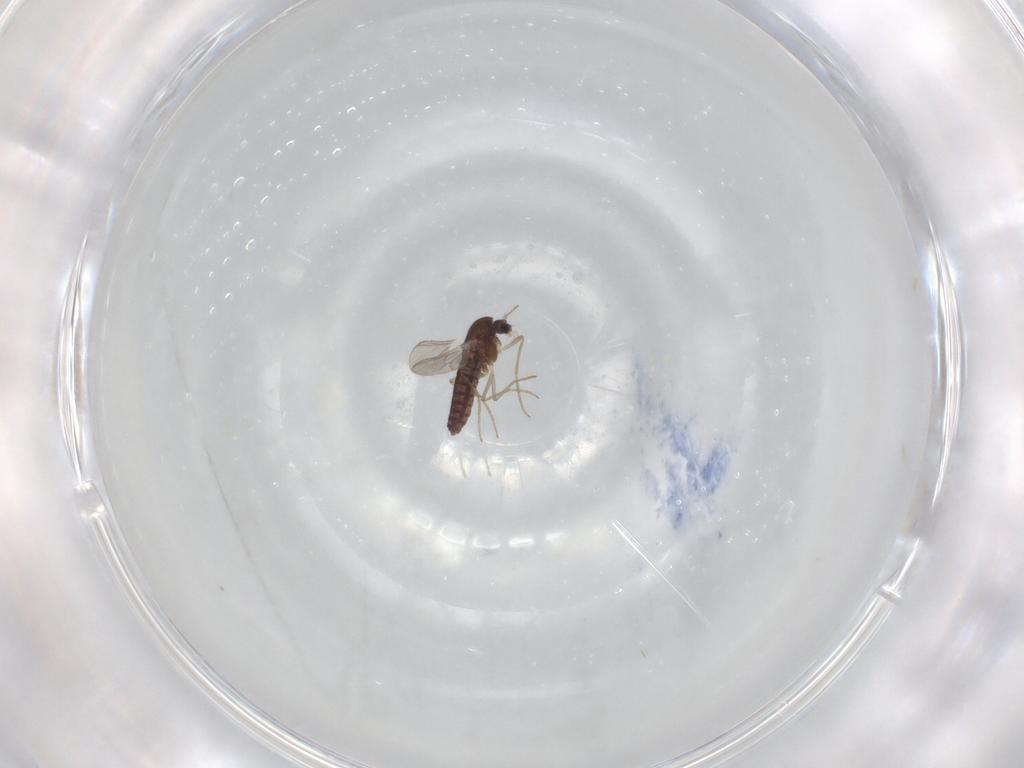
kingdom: Animalia
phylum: Arthropoda
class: Insecta
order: Diptera
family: Chironomidae
